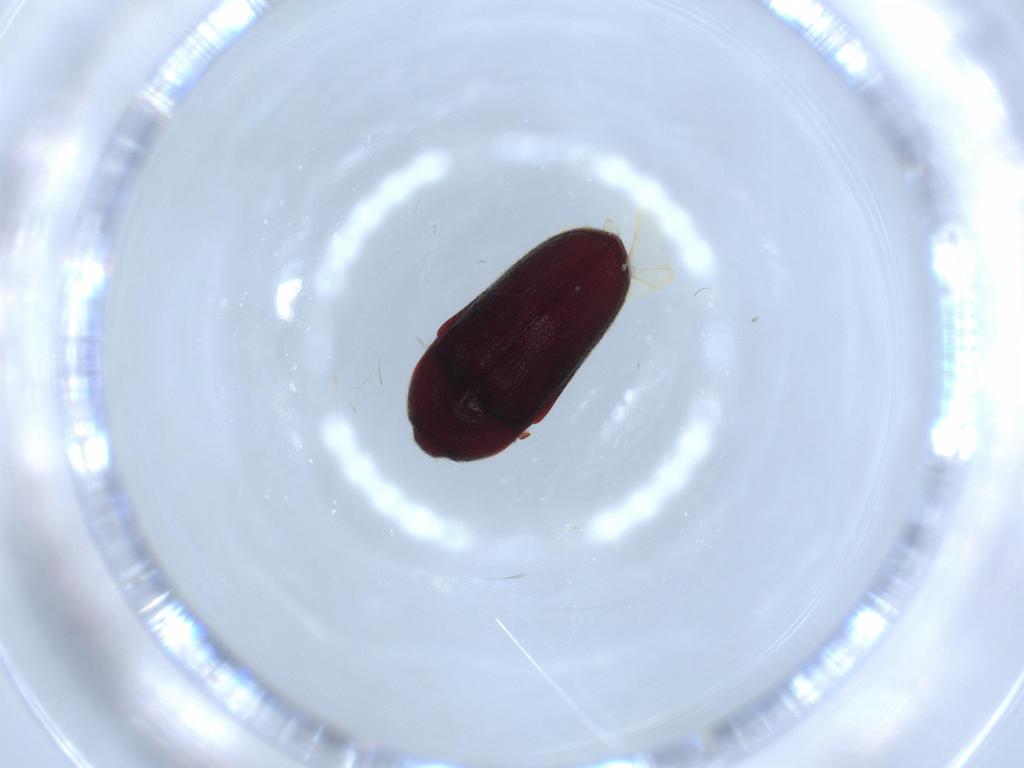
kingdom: Animalia
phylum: Arthropoda
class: Insecta
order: Coleoptera
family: Throscidae
